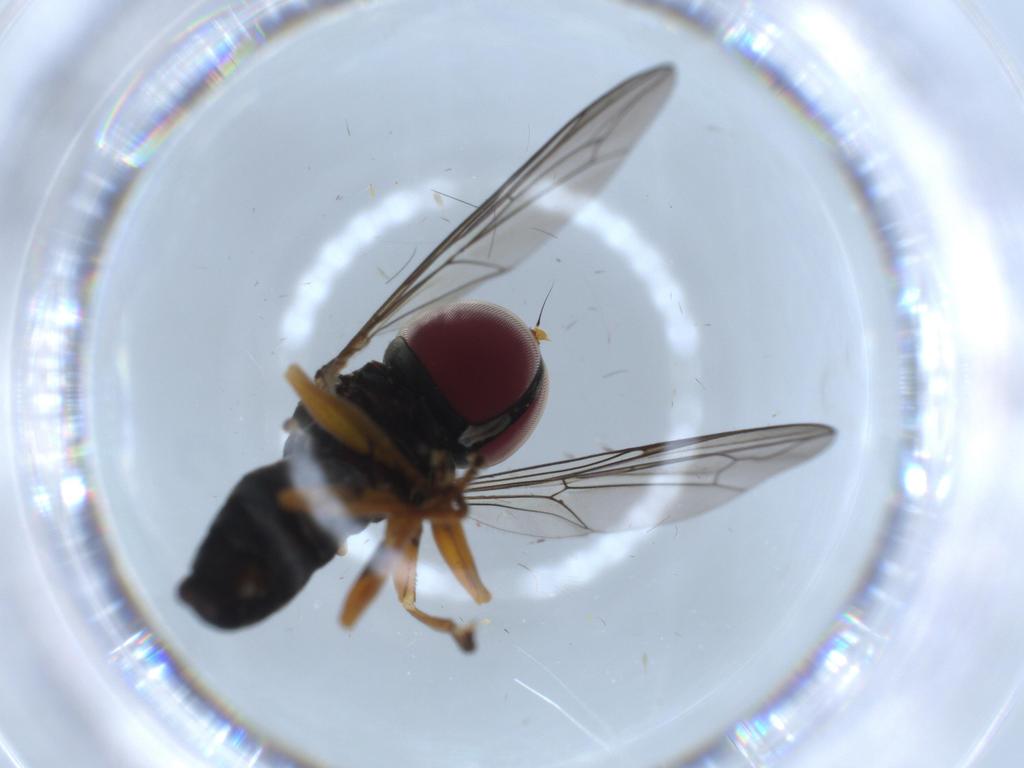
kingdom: Animalia
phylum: Arthropoda
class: Insecta
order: Diptera
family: Pipunculidae
